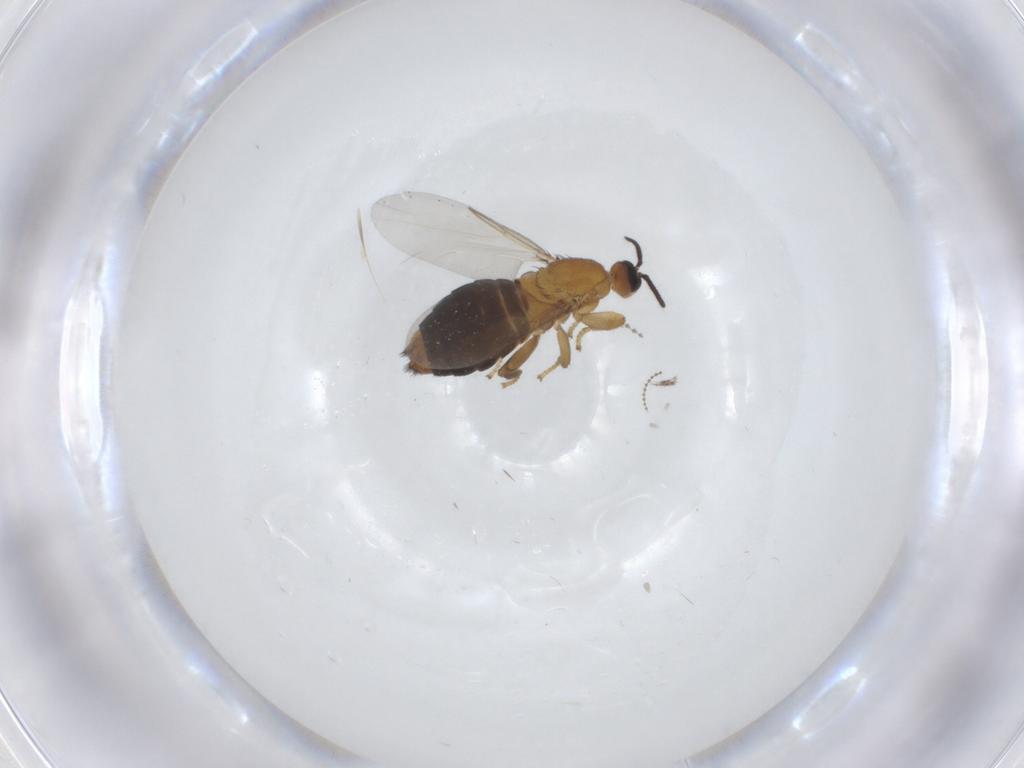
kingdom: Animalia
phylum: Arthropoda
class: Insecta
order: Diptera
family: Scatopsidae
